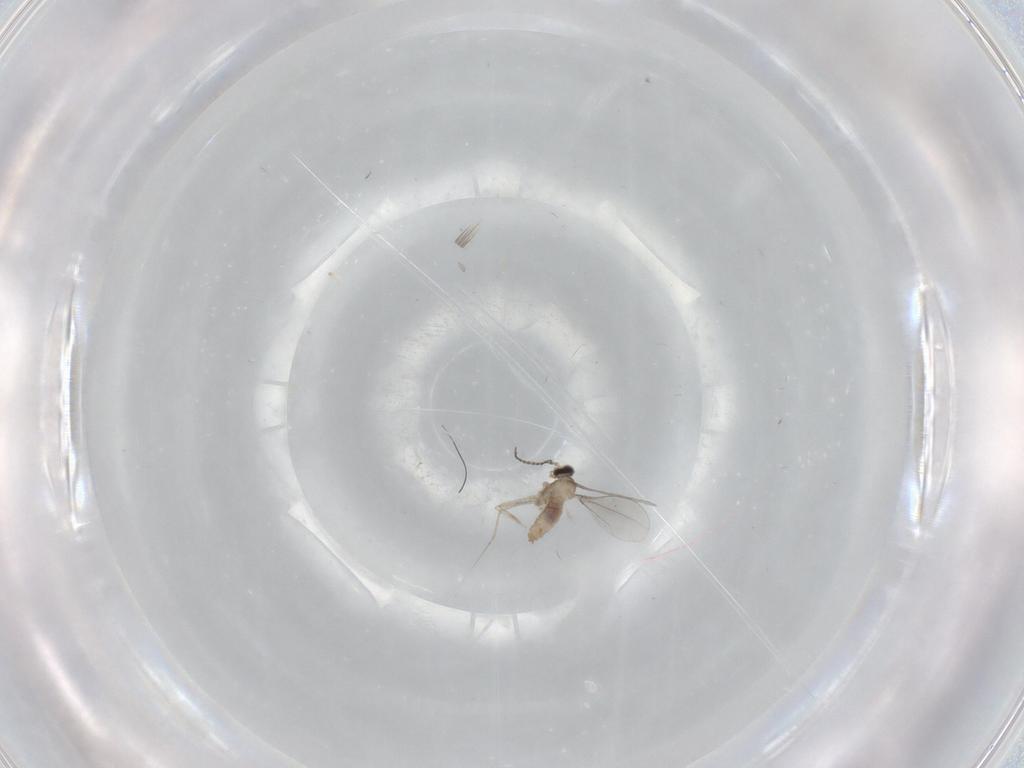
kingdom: Animalia
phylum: Arthropoda
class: Insecta
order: Diptera
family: Cecidomyiidae
